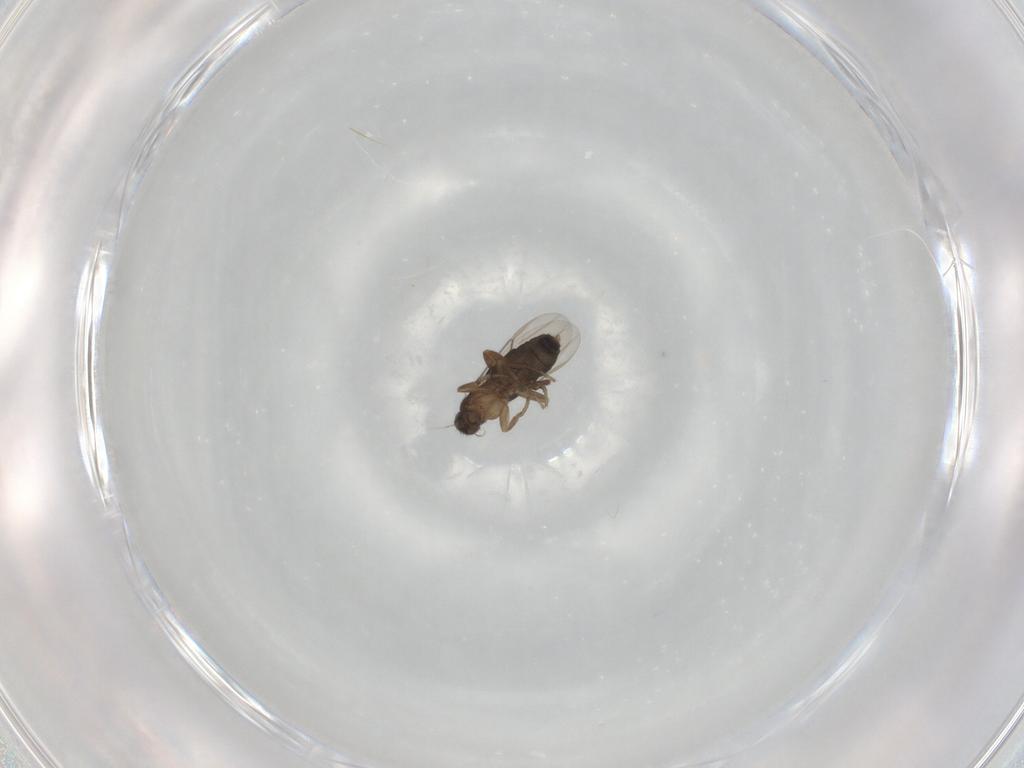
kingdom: Animalia
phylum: Arthropoda
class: Insecta
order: Diptera
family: Phoridae
